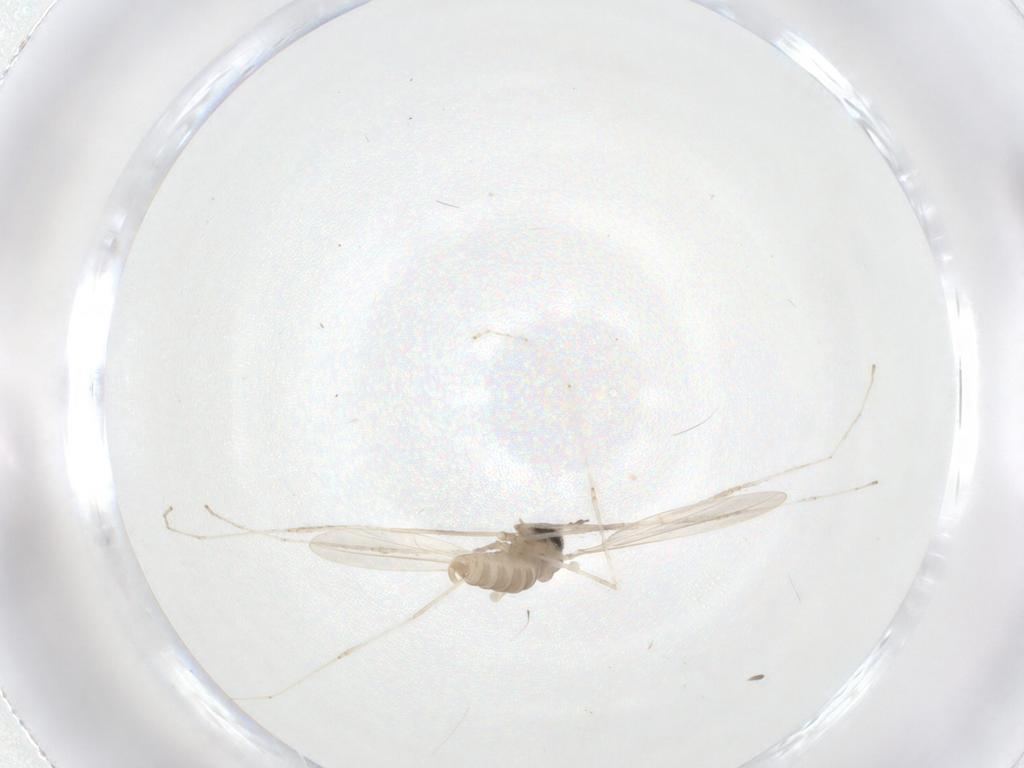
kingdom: Animalia
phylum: Arthropoda
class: Insecta
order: Diptera
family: Cecidomyiidae
